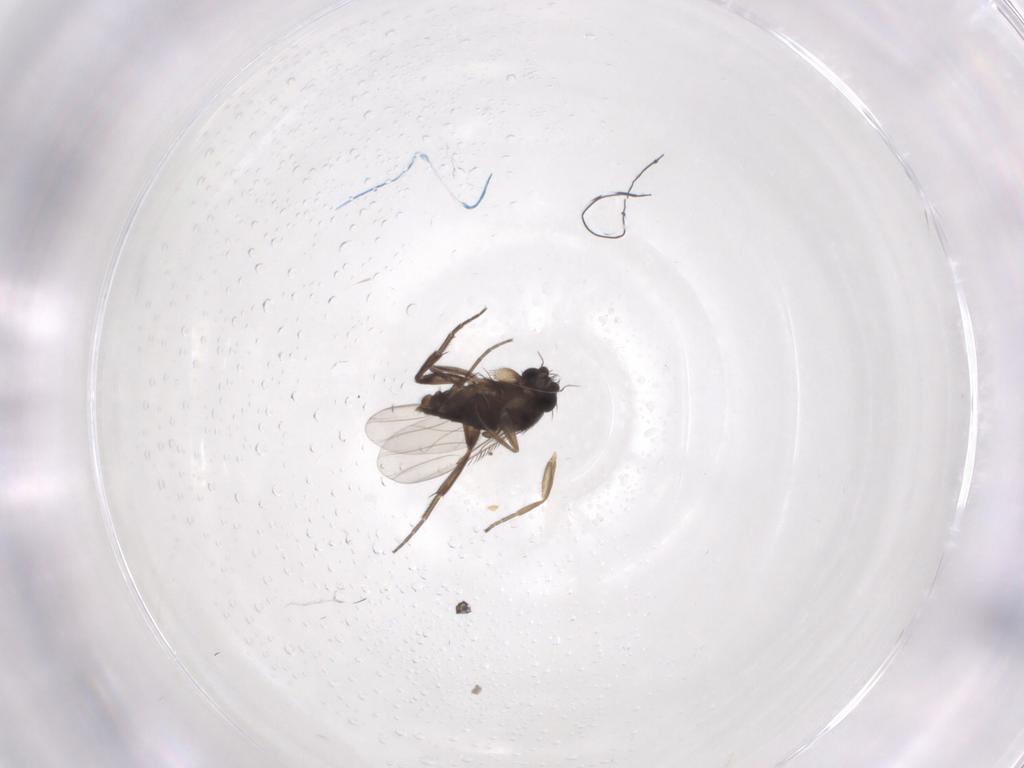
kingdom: Animalia
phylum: Arthropoda
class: Insecta
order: Diptera
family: Phoridae
